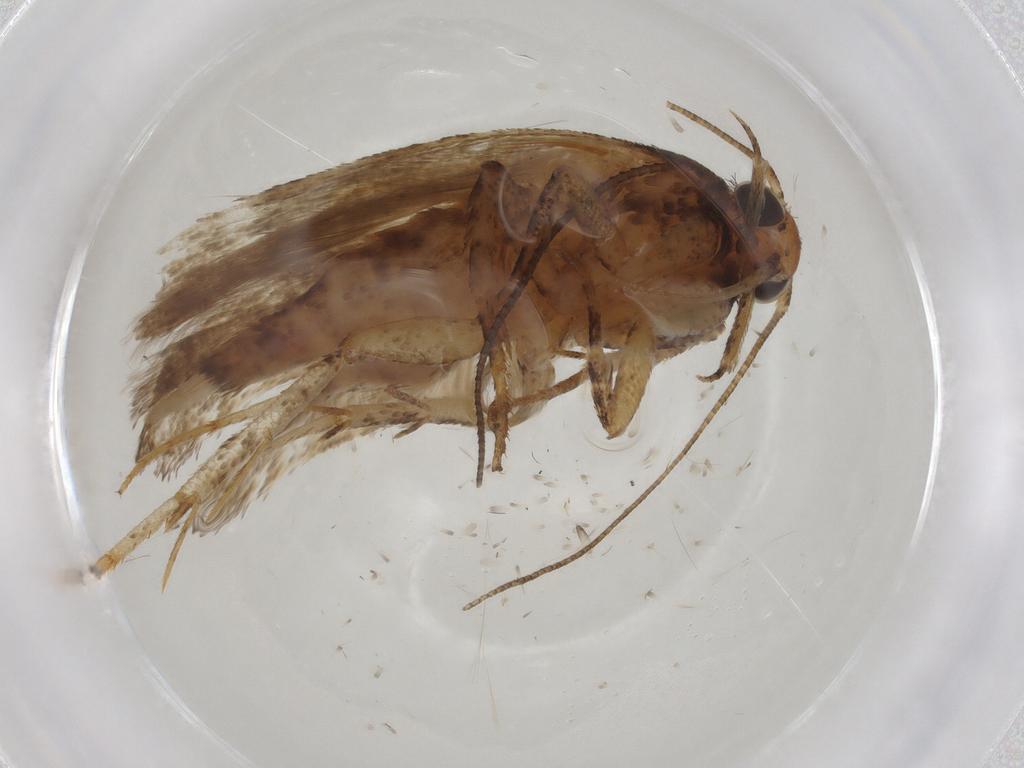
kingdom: Animalia
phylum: Arthropoda
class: Insecta
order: Lepidoptera
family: Gelechiidae
